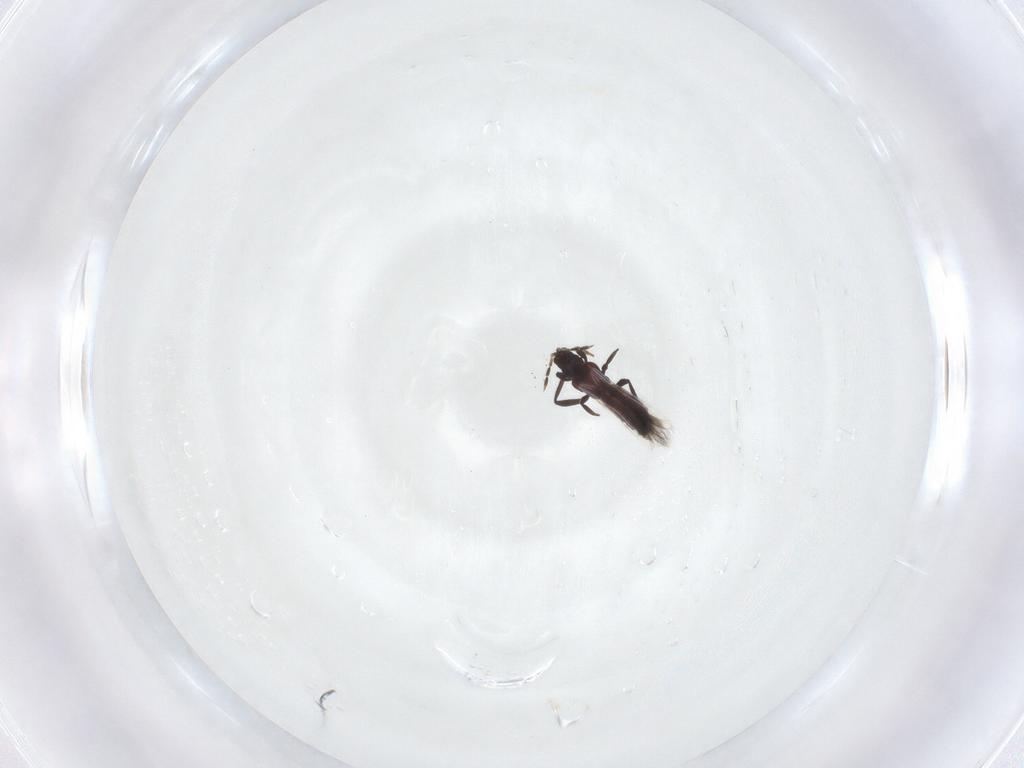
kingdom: Animalia
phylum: Arthropoda
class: Insecta
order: Thysanoptera
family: Aeolothripidae
